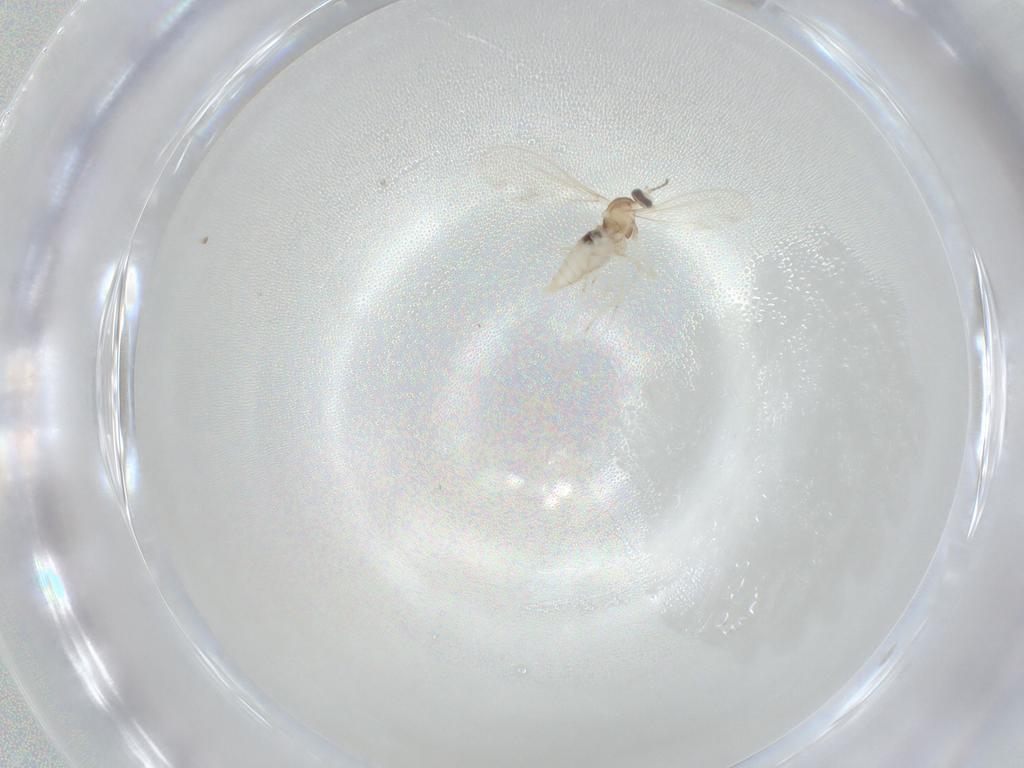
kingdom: Animalia
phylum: Arthropoda
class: Insecta
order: Diptera
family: Cecidomyiidae
